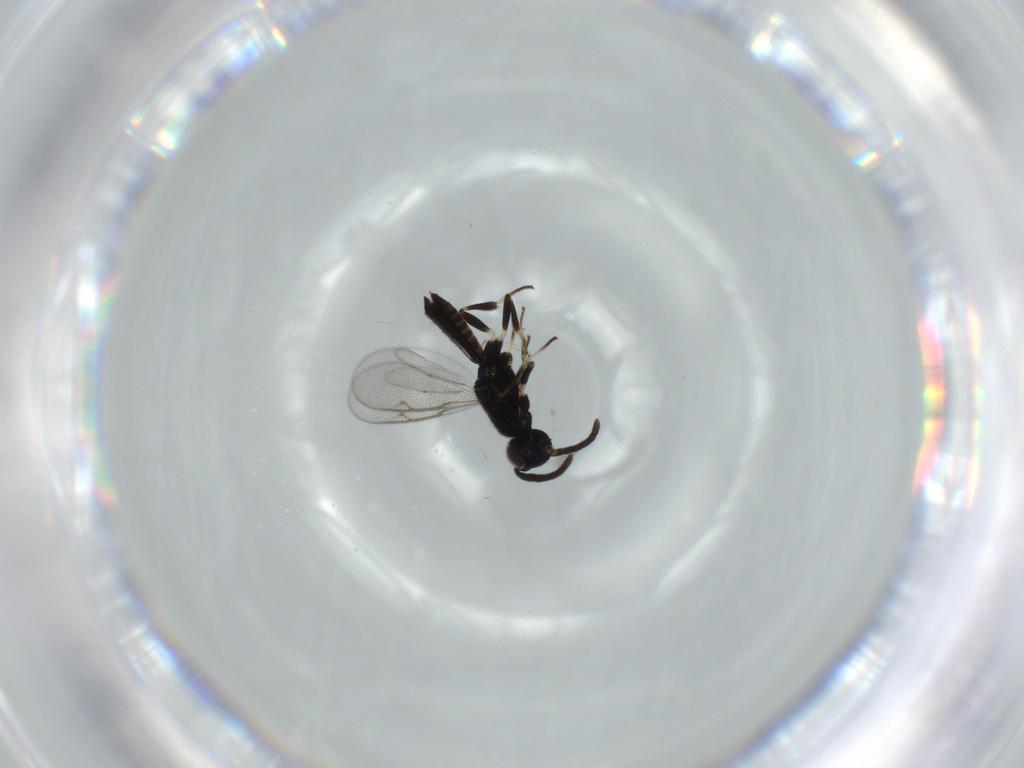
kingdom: Animalia
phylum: Arthropoda
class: Insecta
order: Hymenoptera
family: Eupelmidae
